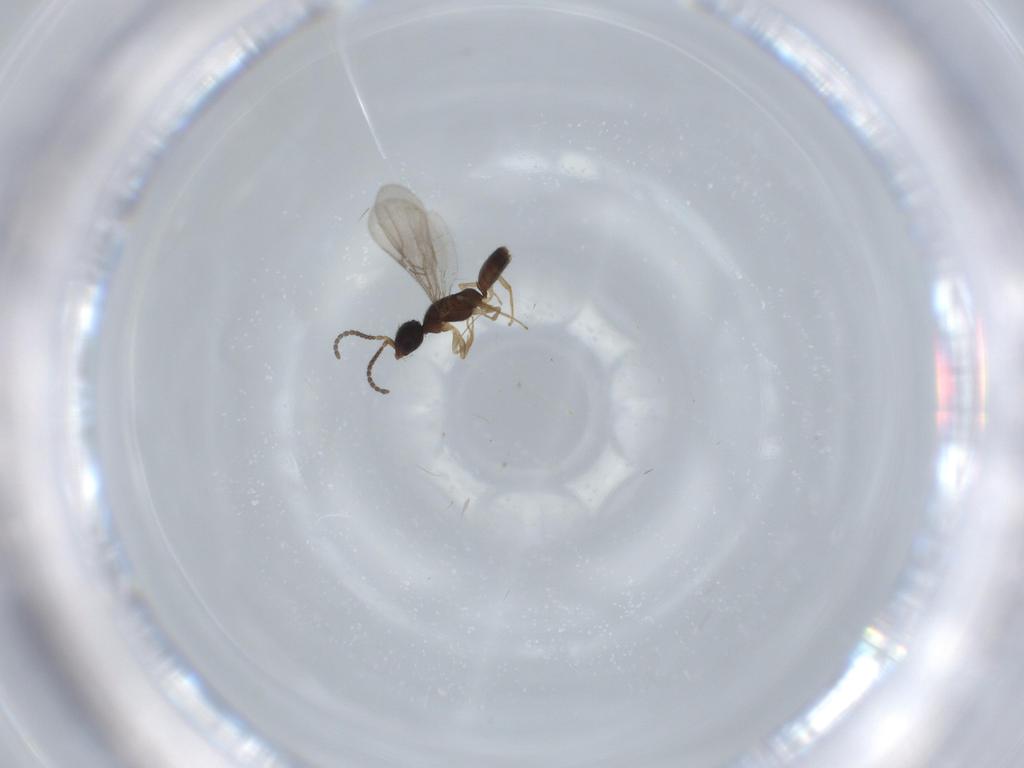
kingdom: Animalia
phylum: Arthropoda
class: Insecta
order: Hymenoptera
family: Bethylidae
